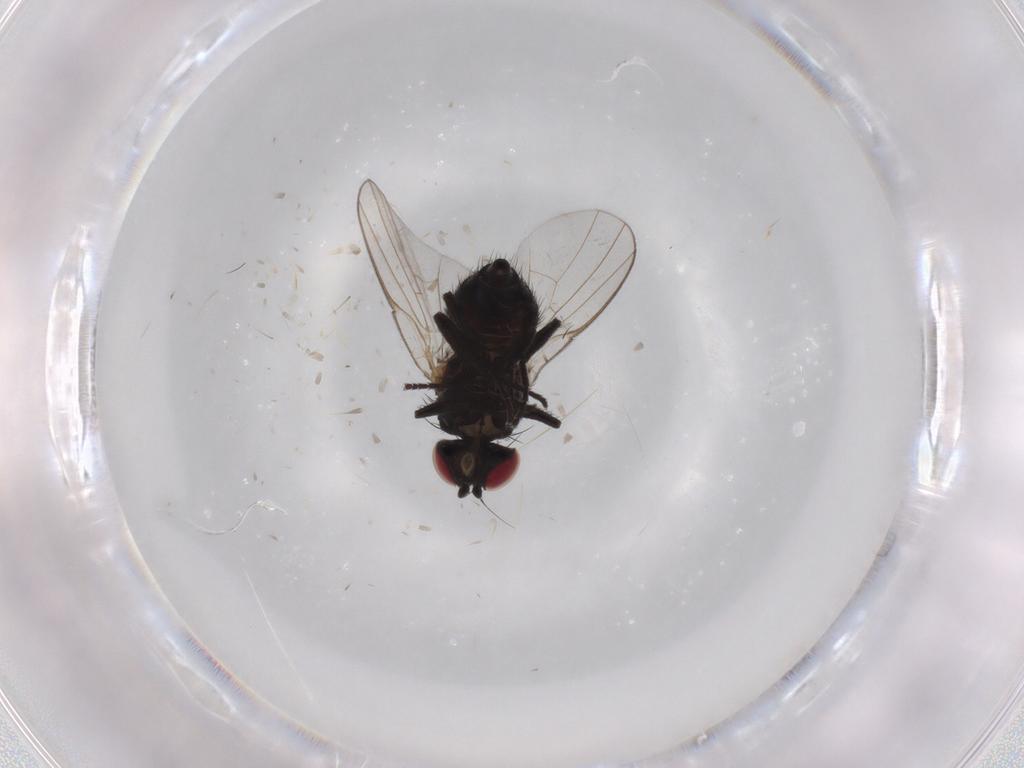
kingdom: Animalia
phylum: Arthropoda
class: Insecta
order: Diptera
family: Agromyzidae
